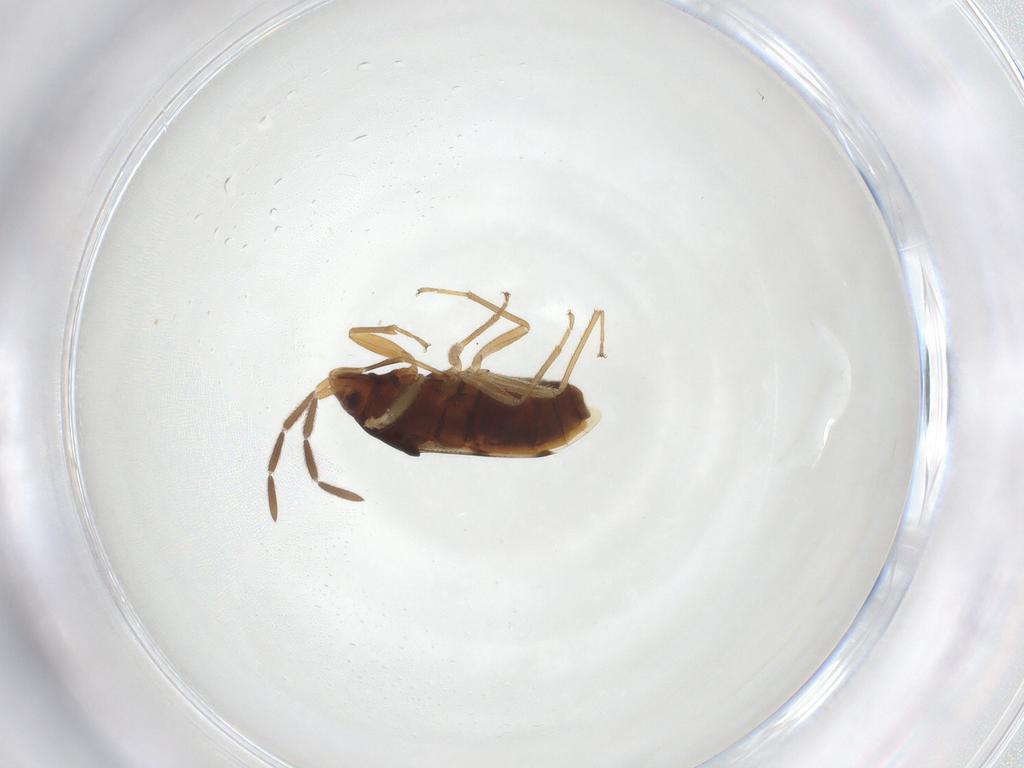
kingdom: Animalia
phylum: Arthropoda
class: Insecta
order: Hemiptera
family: Rhyparochromidae
